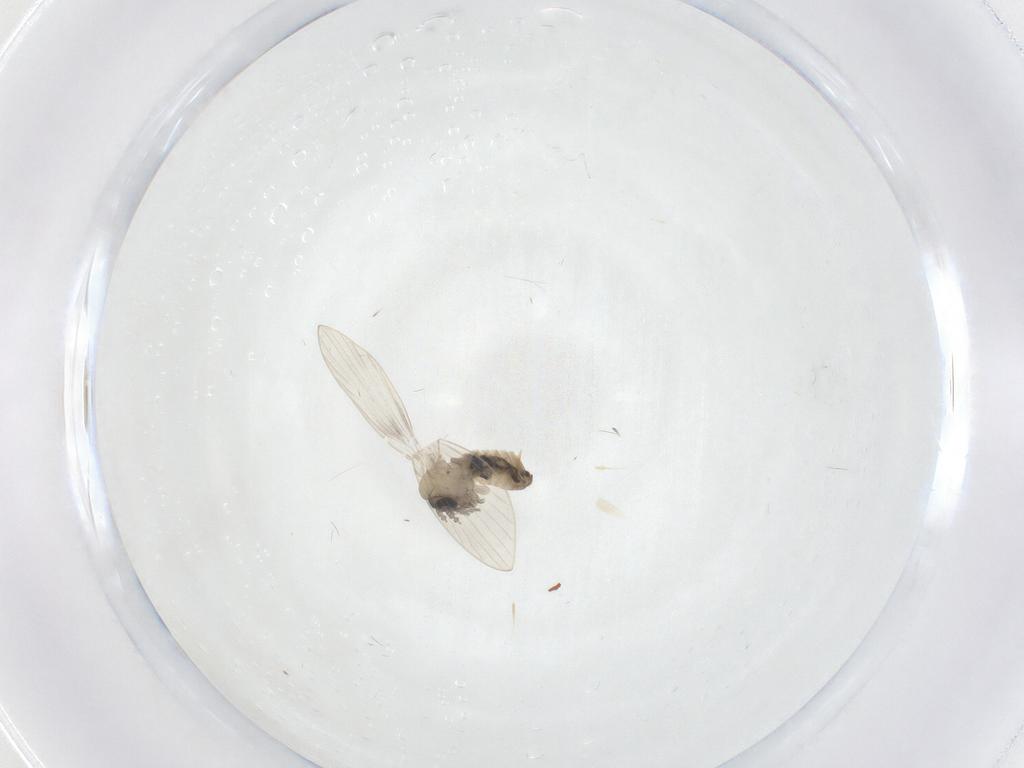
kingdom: Animalia
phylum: Arthropoda
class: Insecta
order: Diptera
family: Psychodidae
